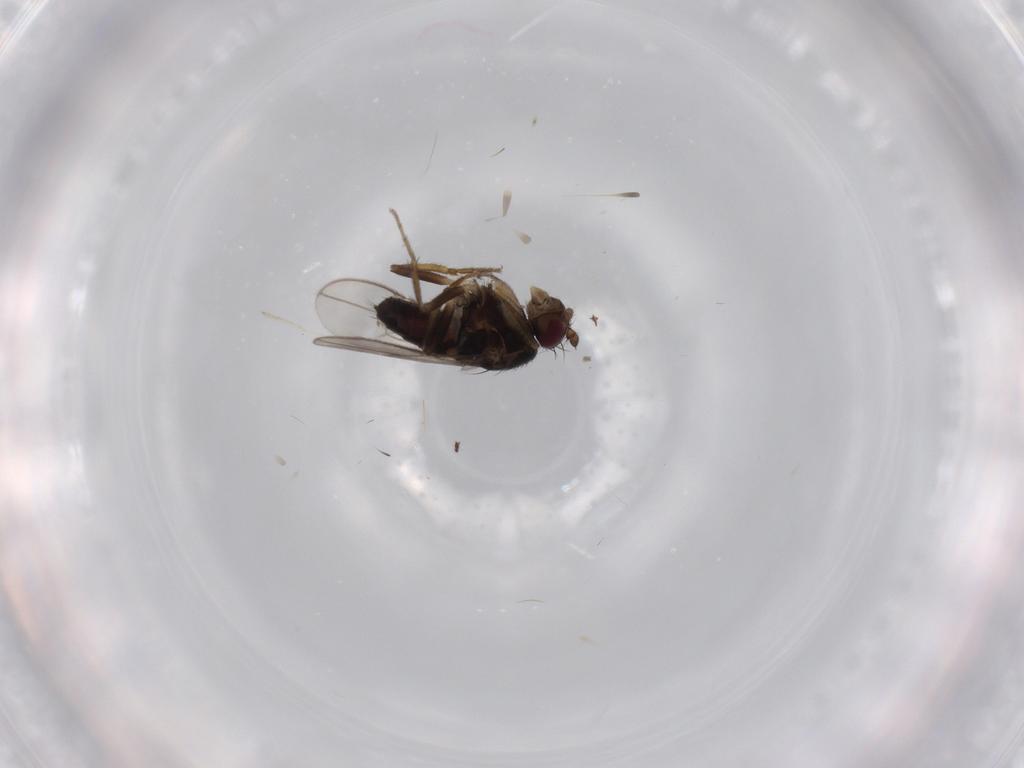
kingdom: Animalia
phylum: Arthropoda
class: Insecta
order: Diptera
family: Sphaeroceridae
